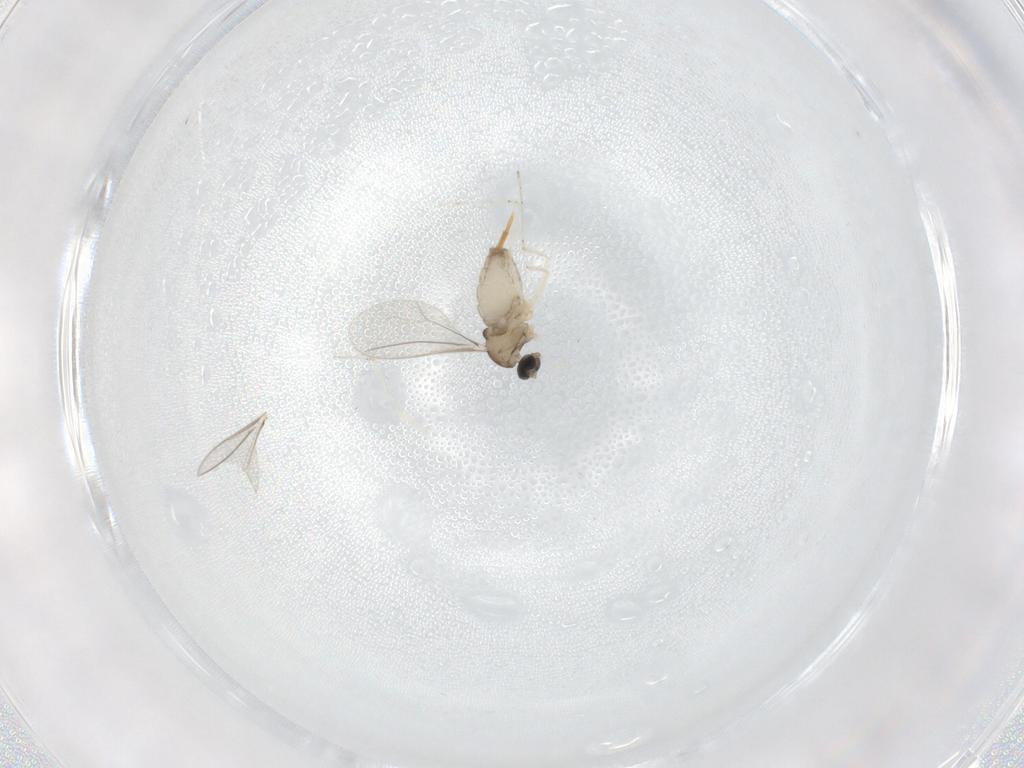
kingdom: Animalia
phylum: Arthropoda
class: Insecta
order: Diptera
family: Cecidomyiidae
